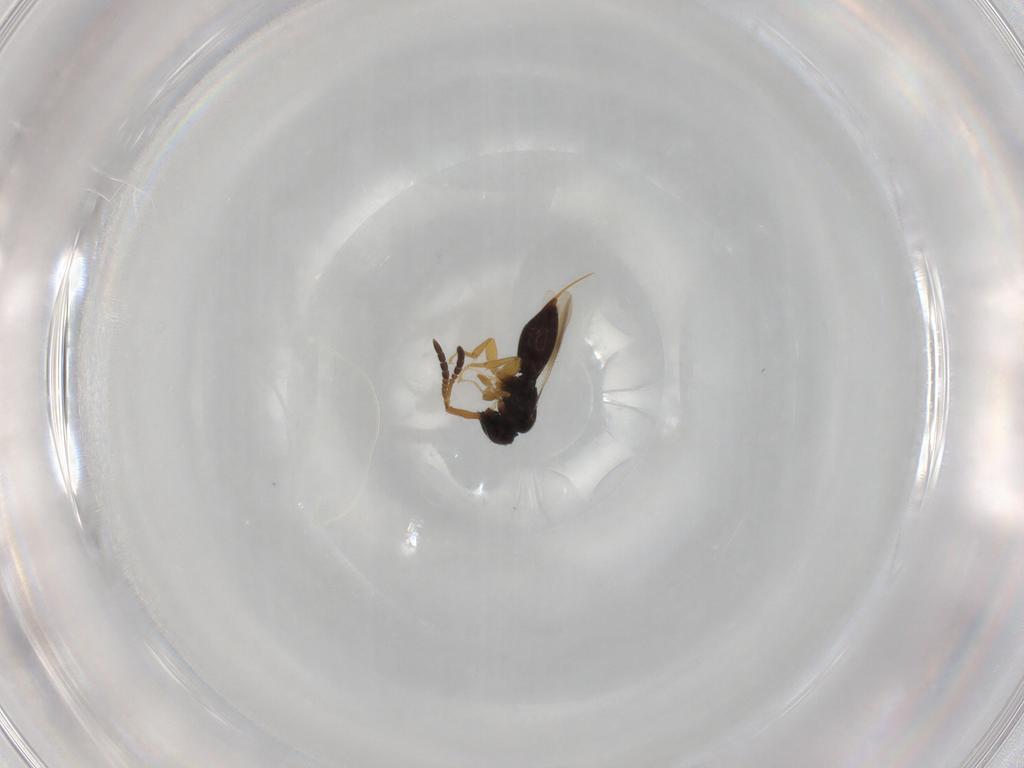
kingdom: Animalia
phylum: Arthropoda
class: Insecta
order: Hymenoptera
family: Ceraphronidae
